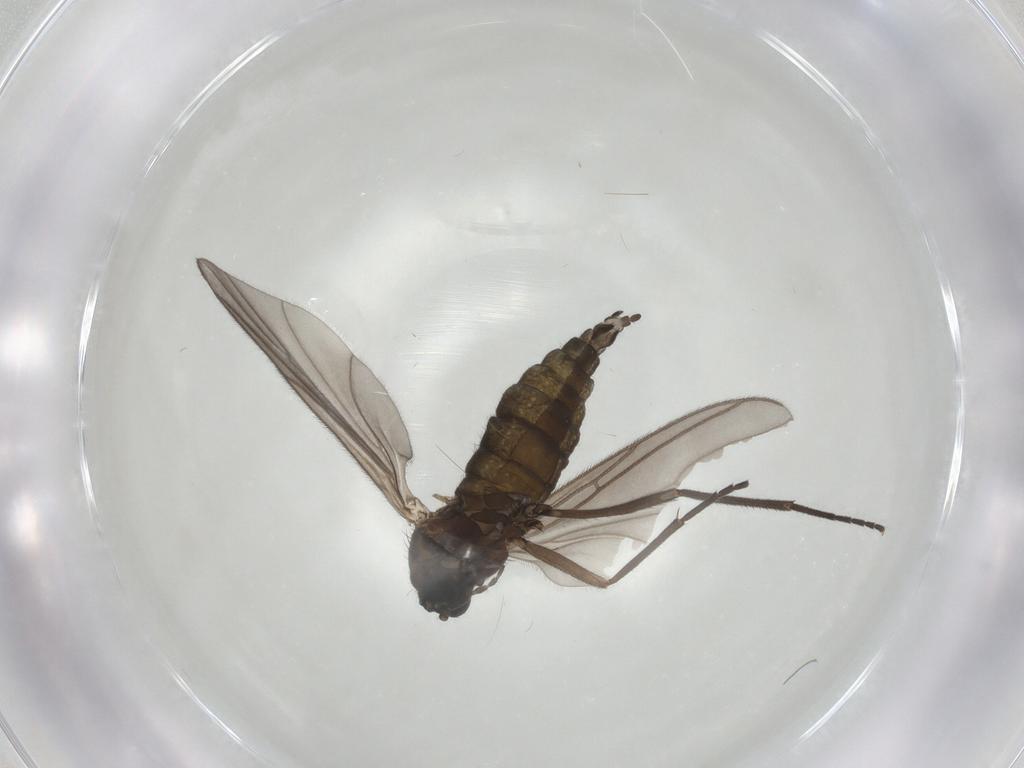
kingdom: Animalia
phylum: Arthropoda
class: Insecta
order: Diptera
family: Sciaridae
